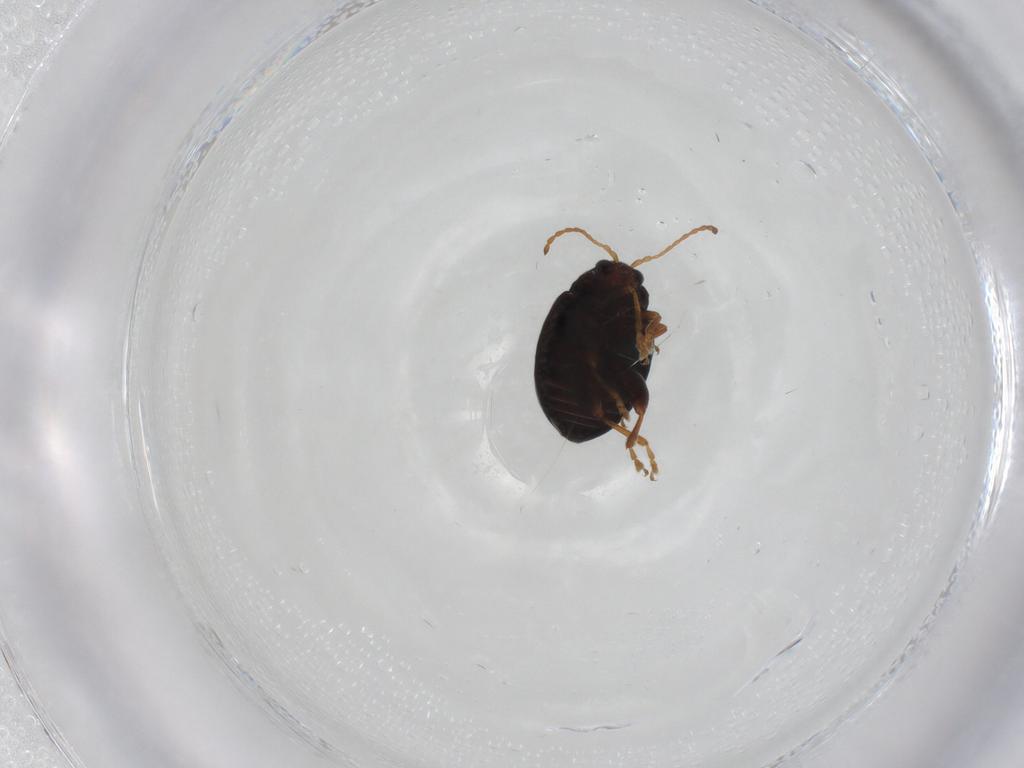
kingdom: Animalia
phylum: Arthropoda
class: Insecta
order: Coleoptera
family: Chrysomelidae
